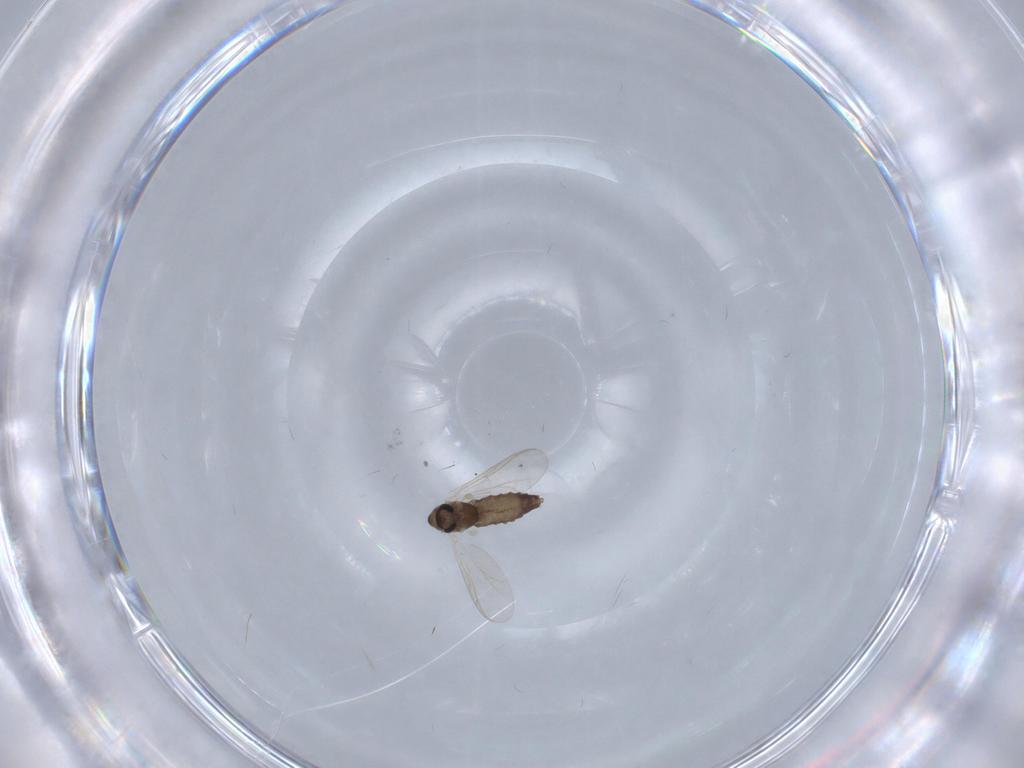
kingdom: Animalia
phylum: Arthropoda
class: Insecta
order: Diptera
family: Chironomidae
